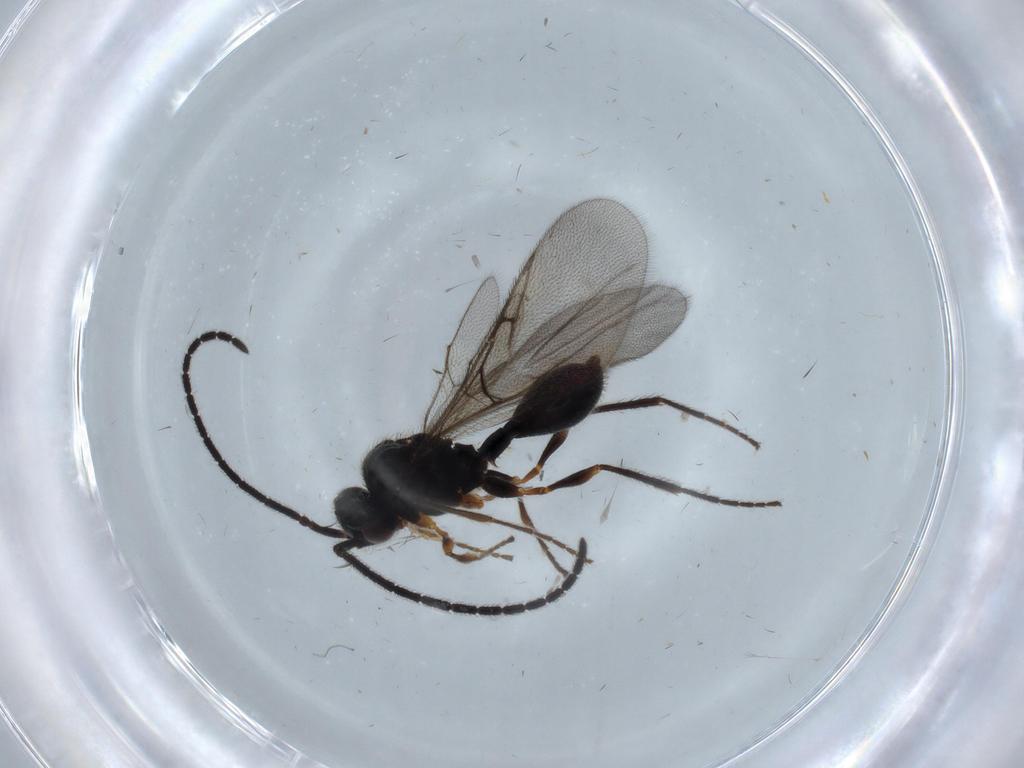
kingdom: Animalia
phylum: Arthropoda
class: Insecta
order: Hymenoptera
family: Diapriidae
